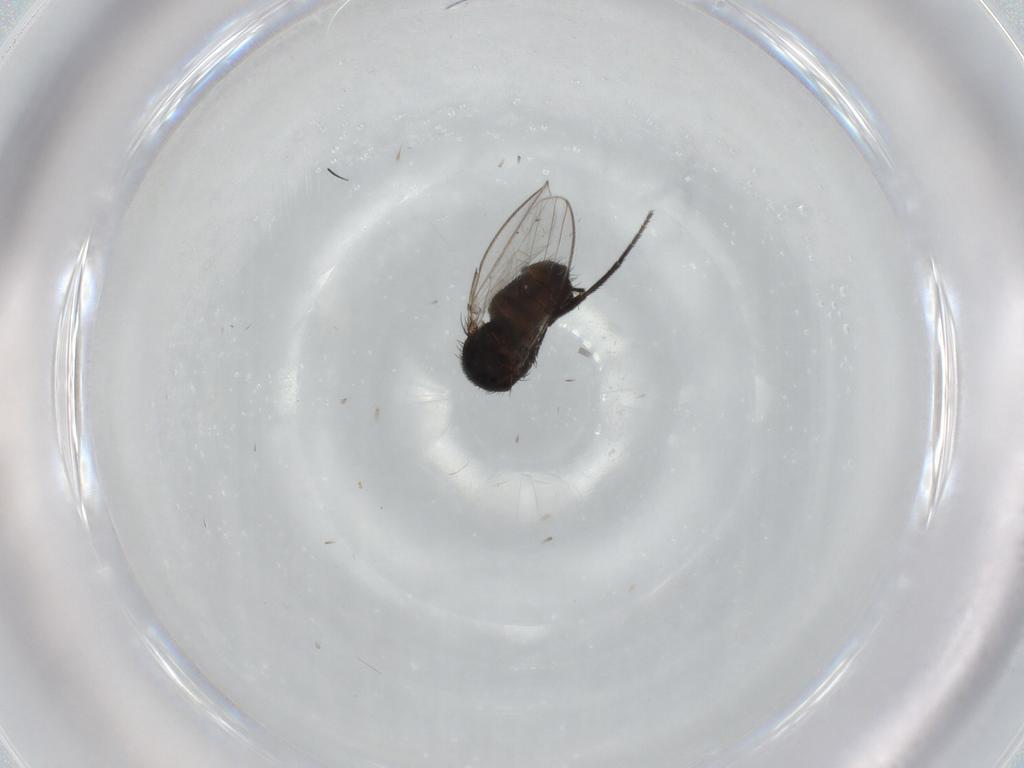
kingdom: Animalia
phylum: Arthropoda
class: Insecta
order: Diptera
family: Milichiidae
